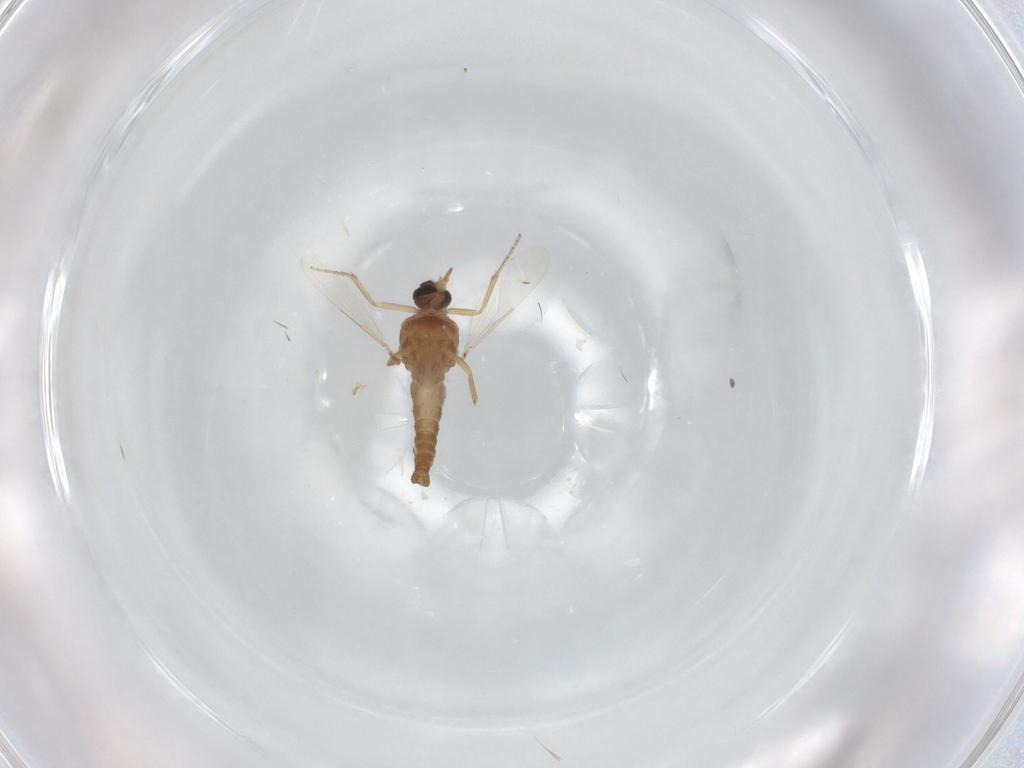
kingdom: Animalia
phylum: Arthropoda
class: Insecta
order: Diptera
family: Ceratopogonidae
